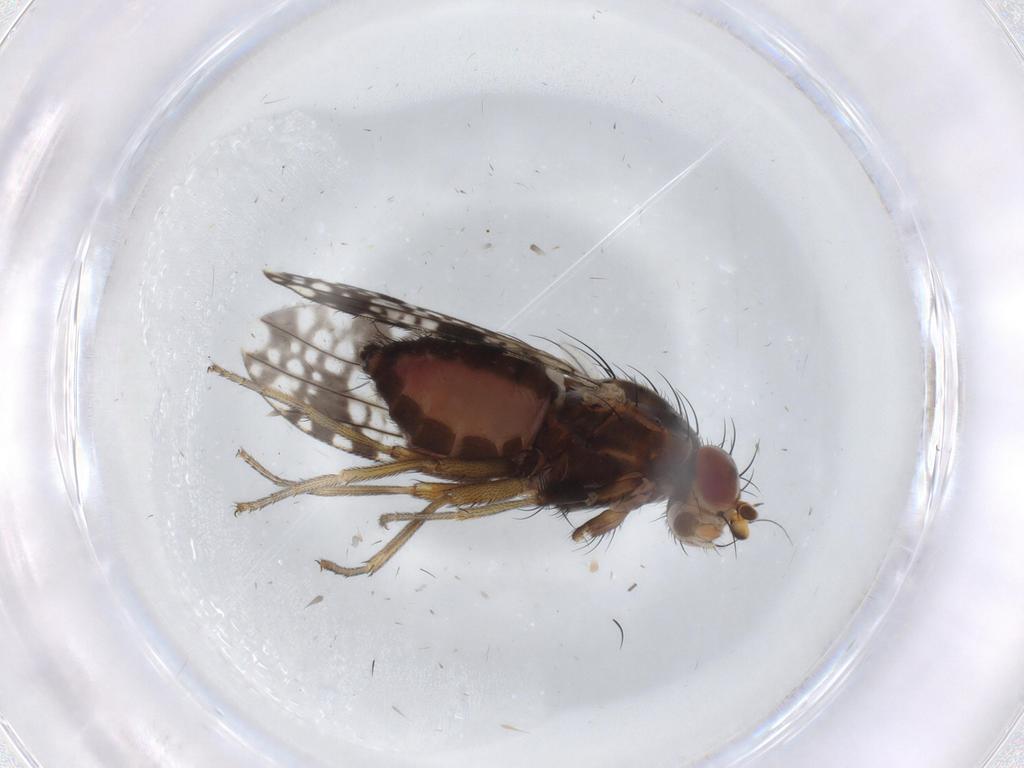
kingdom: Animalia
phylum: Arthropoda
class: Insecta
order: Diptera
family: Tephritidae
